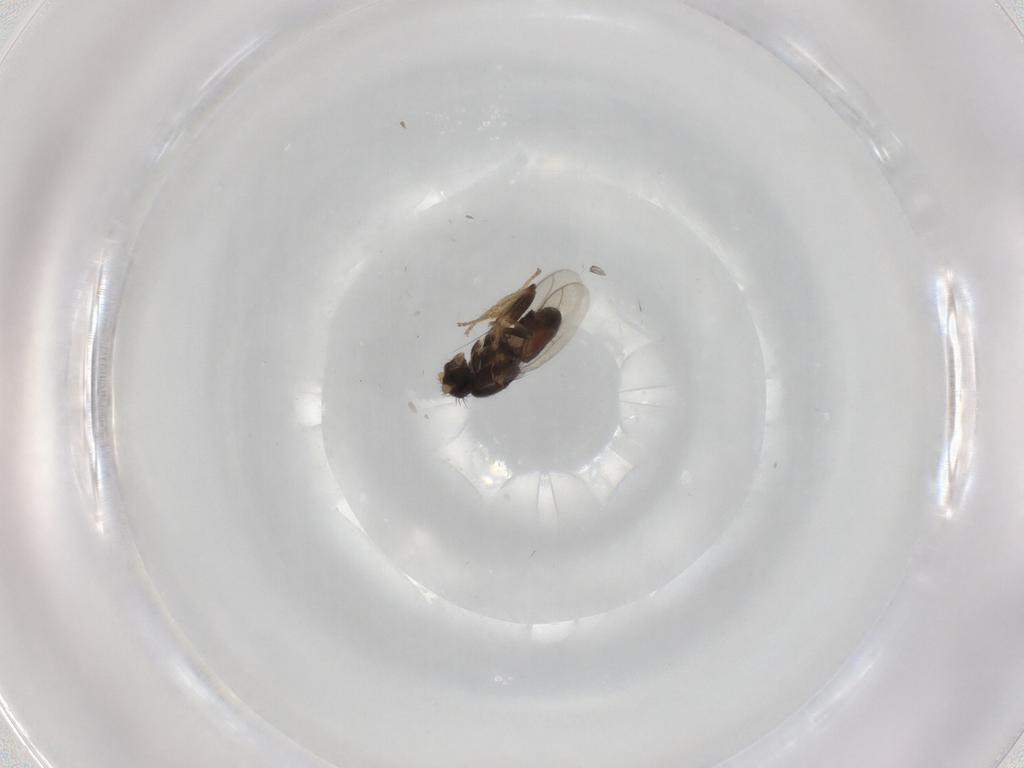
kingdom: Animalia
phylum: Arthropoda
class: Insecta
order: Diptera
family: Sphaeroceridae
